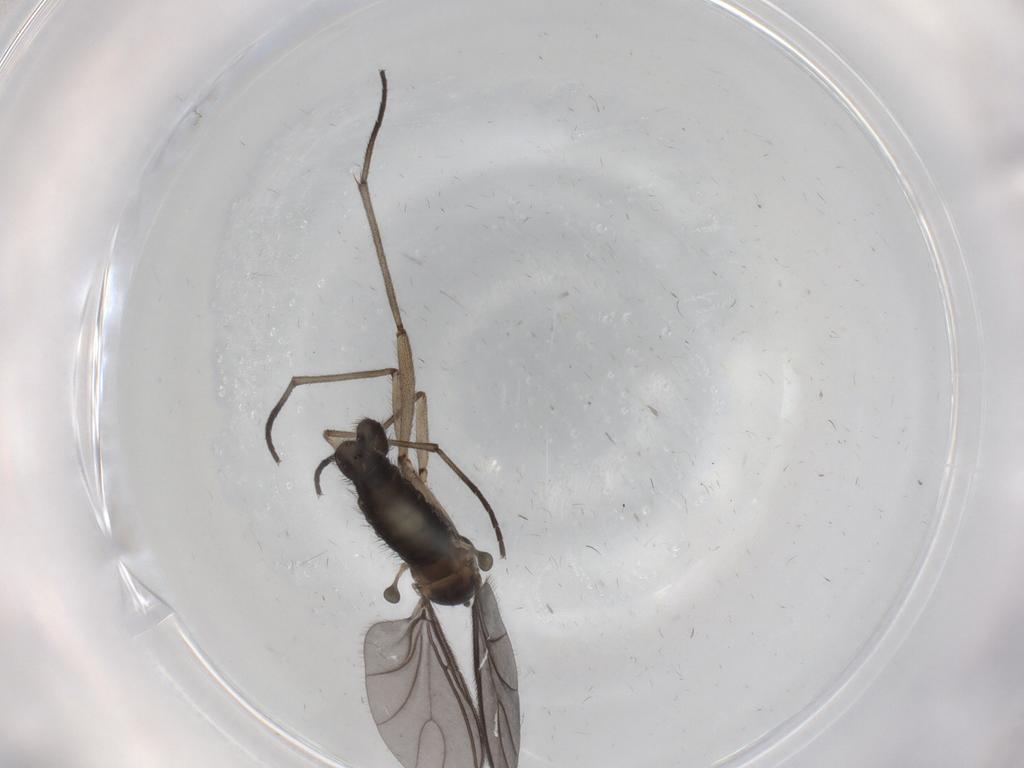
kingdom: Animalia
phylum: Arthropoda
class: Insecta
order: Diptera
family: Sciaridae
